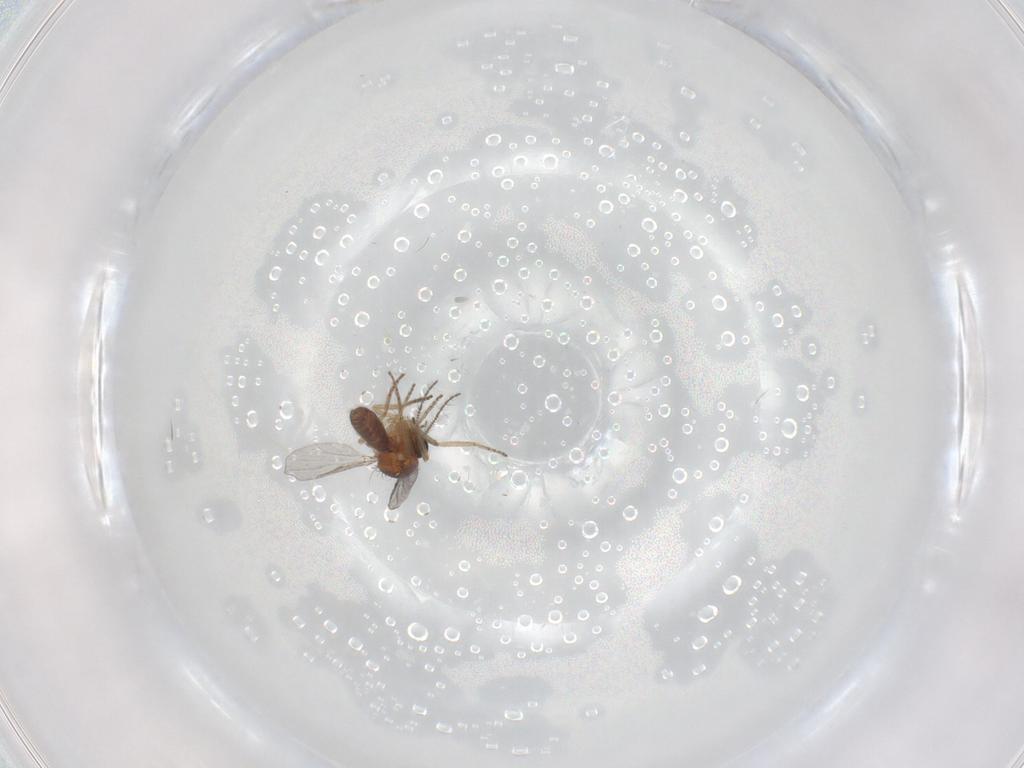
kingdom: Animalia
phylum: Arthropoda
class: Insecta
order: Diptera
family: Ceratopogonidae
